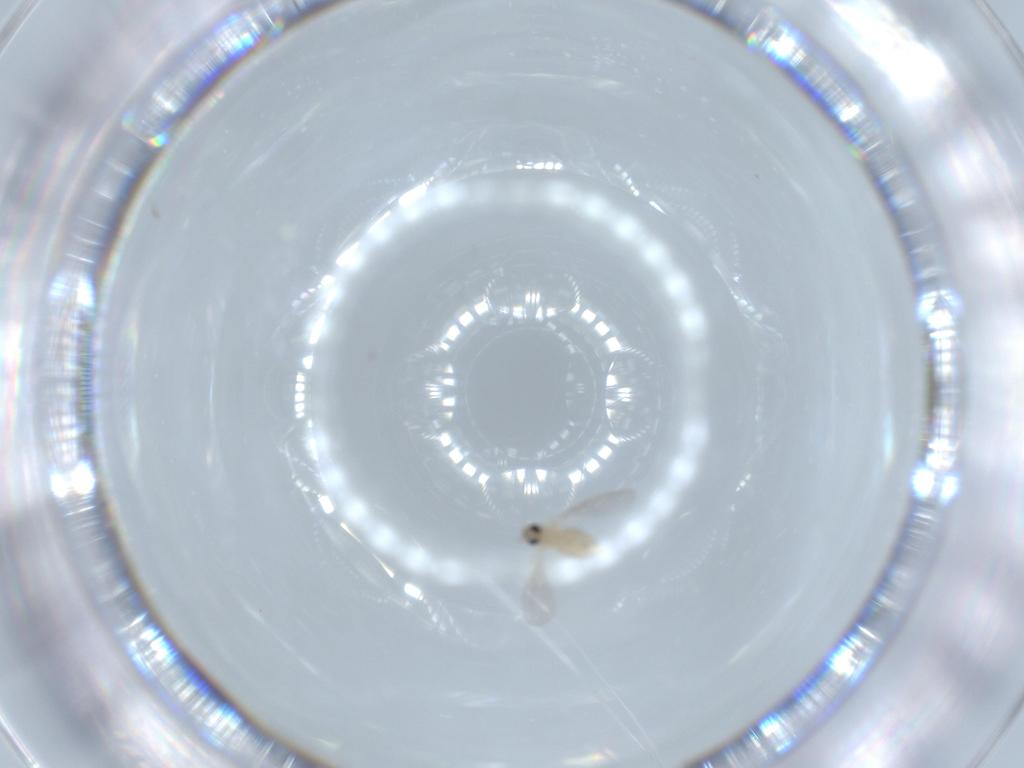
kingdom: Animalia
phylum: Arthropoda
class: Insecta
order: Diptera
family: Cecidomyiidae
